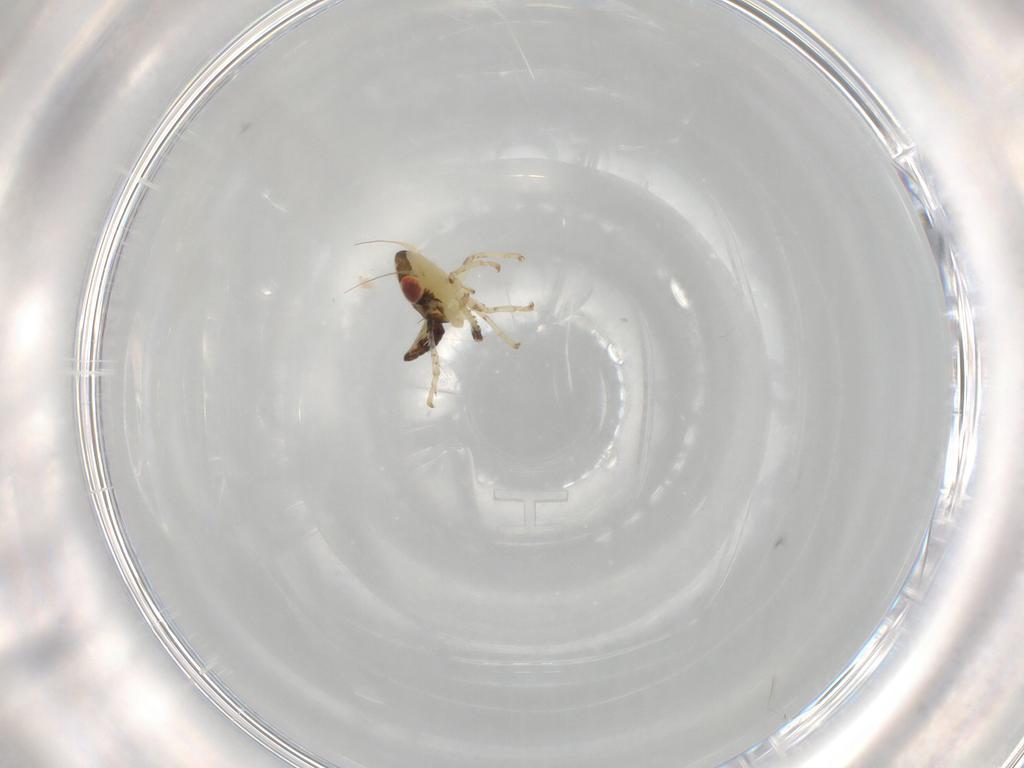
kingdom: Animalia
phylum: Arthropoda
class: Insecta
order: Hemiptera
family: Cicadellidae
